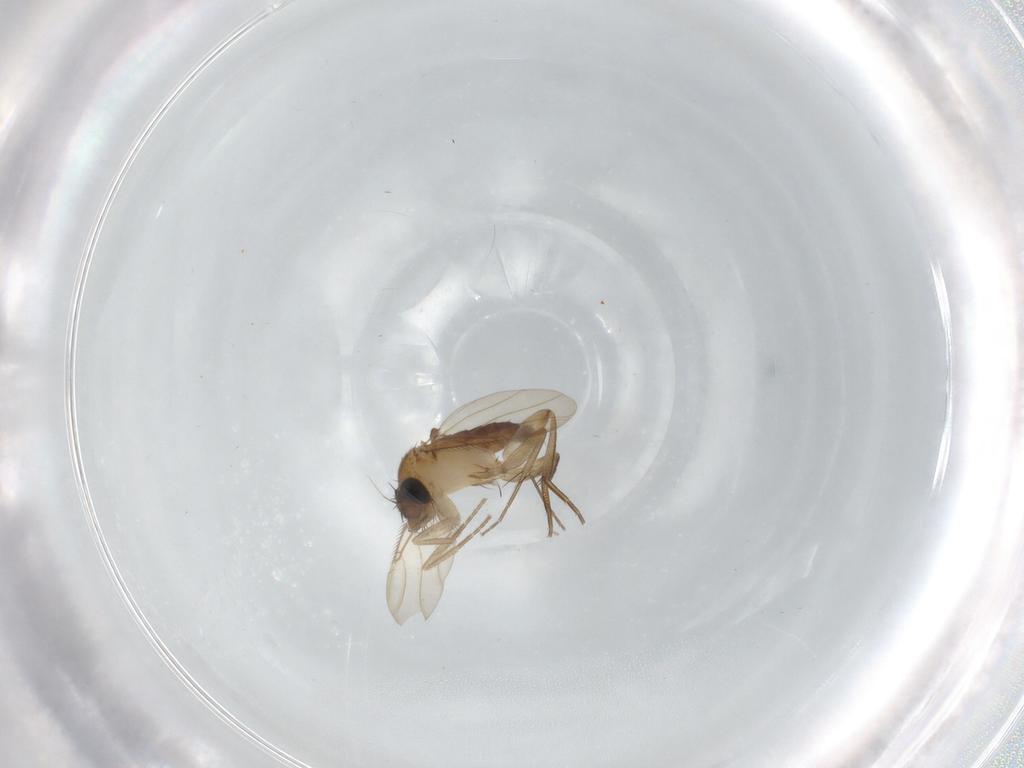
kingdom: Animalia
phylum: Arthropoda
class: Insecta
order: Diptera
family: Phoridae
